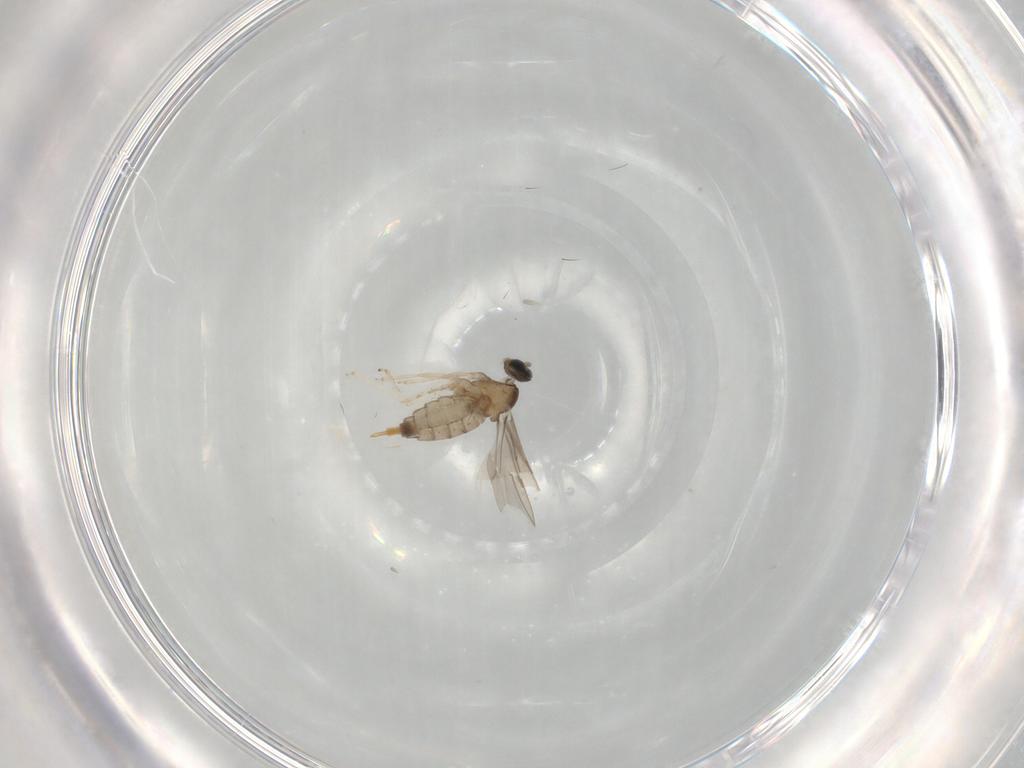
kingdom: Animalia
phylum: Arthropoda
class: Insecta
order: Diptera
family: Cecidomyiidae
